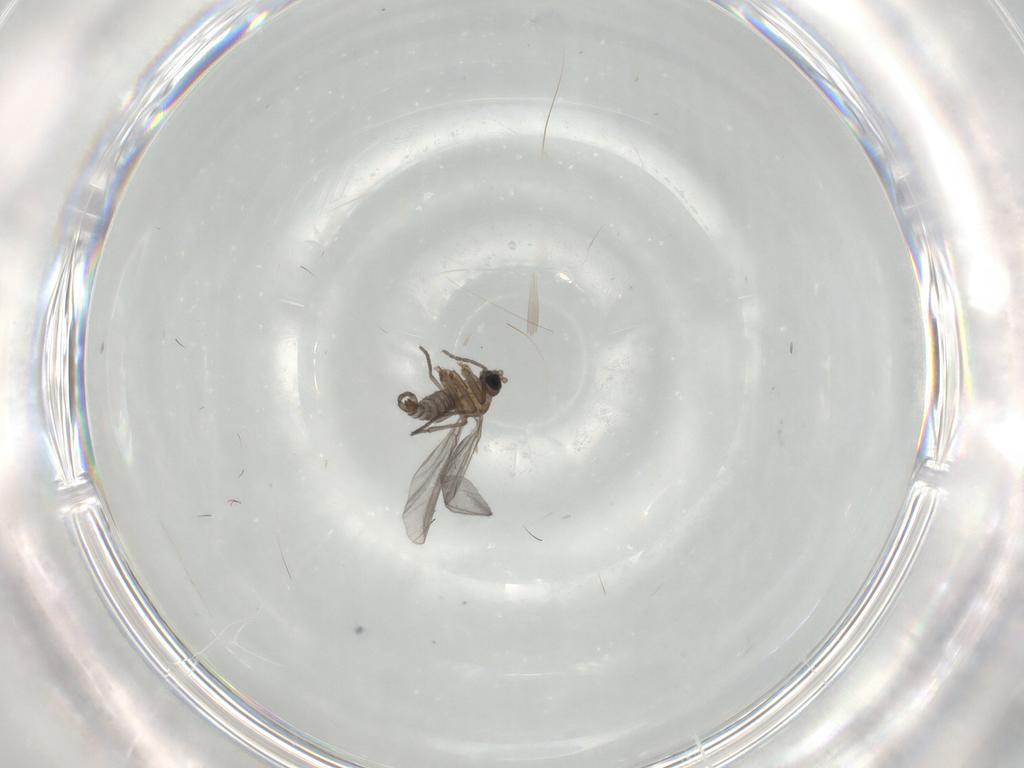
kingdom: Animalia
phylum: Arthropoda
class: Insecta
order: Diptera
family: Sciaridae
